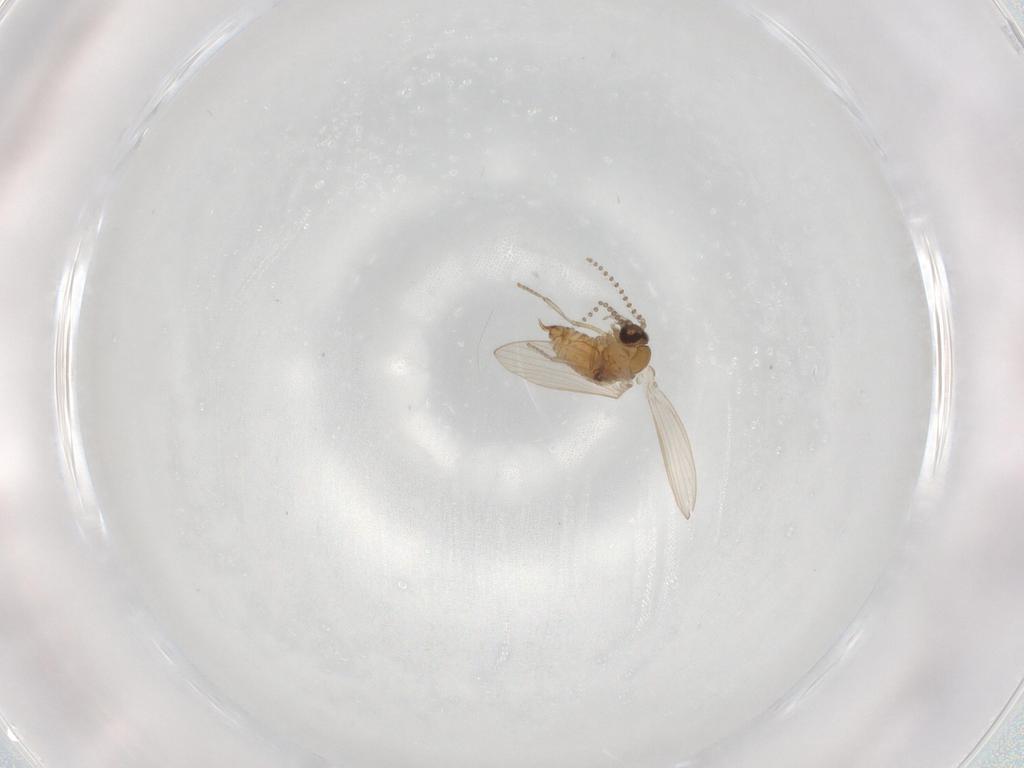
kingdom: Animalia
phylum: Arthropoda
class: Insecta
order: Diptera
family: Psychodidae
